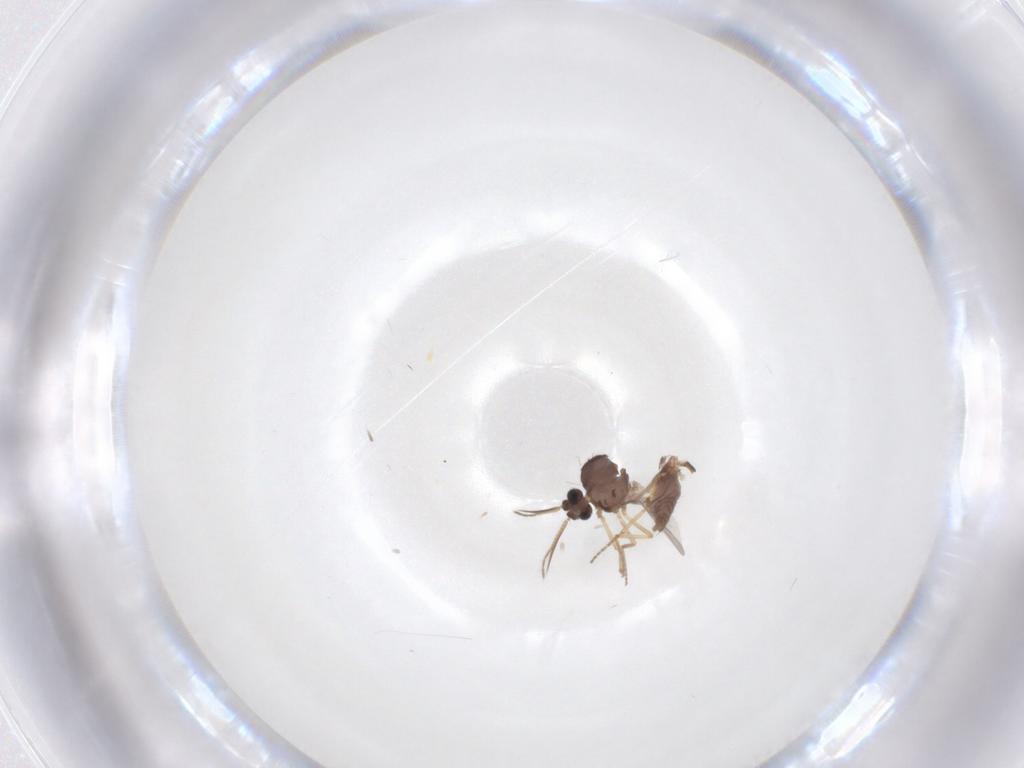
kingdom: Animalia
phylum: Arthropoda
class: Insecta
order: Diptera
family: Ceratopogonidae
